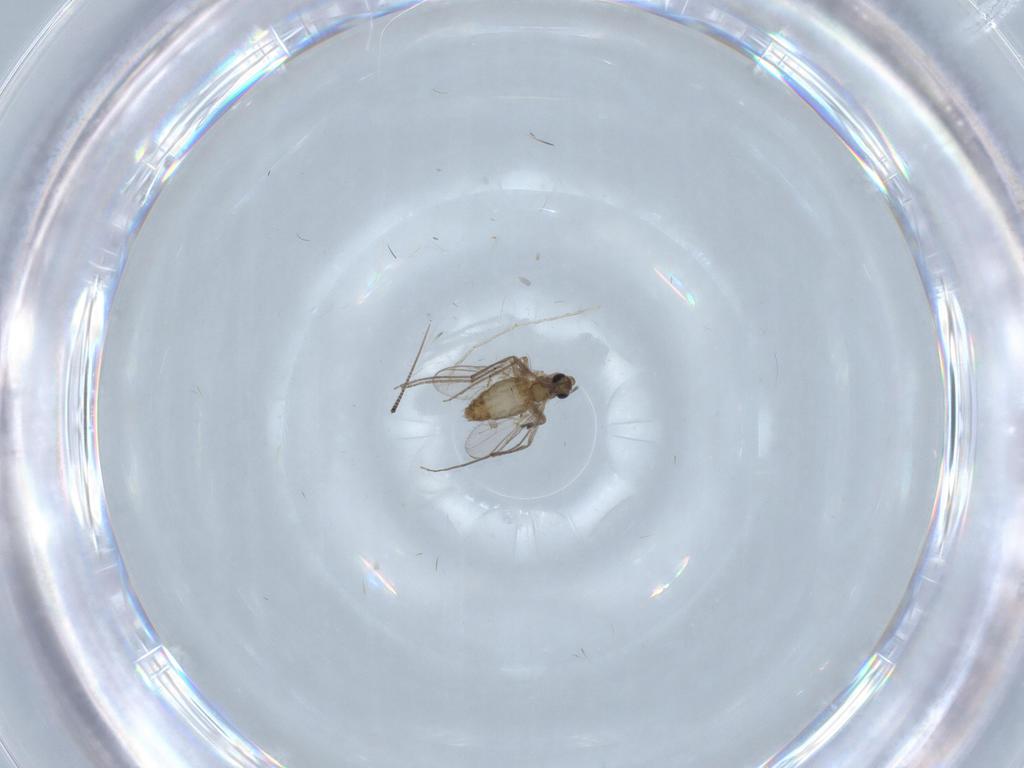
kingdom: Animalia
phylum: Arthropoda
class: Insecta
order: Diptera
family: Chironomidae
